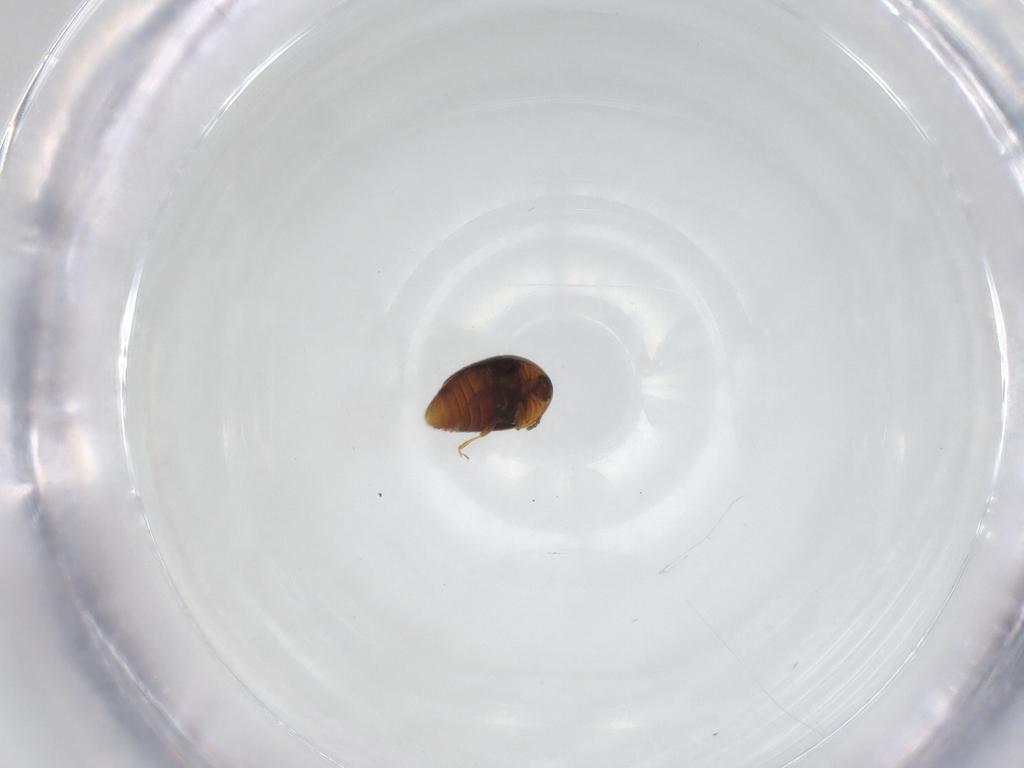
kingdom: Animalia
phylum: Arthropoda
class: Insecta
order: Coleoptera
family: Corylophidae
